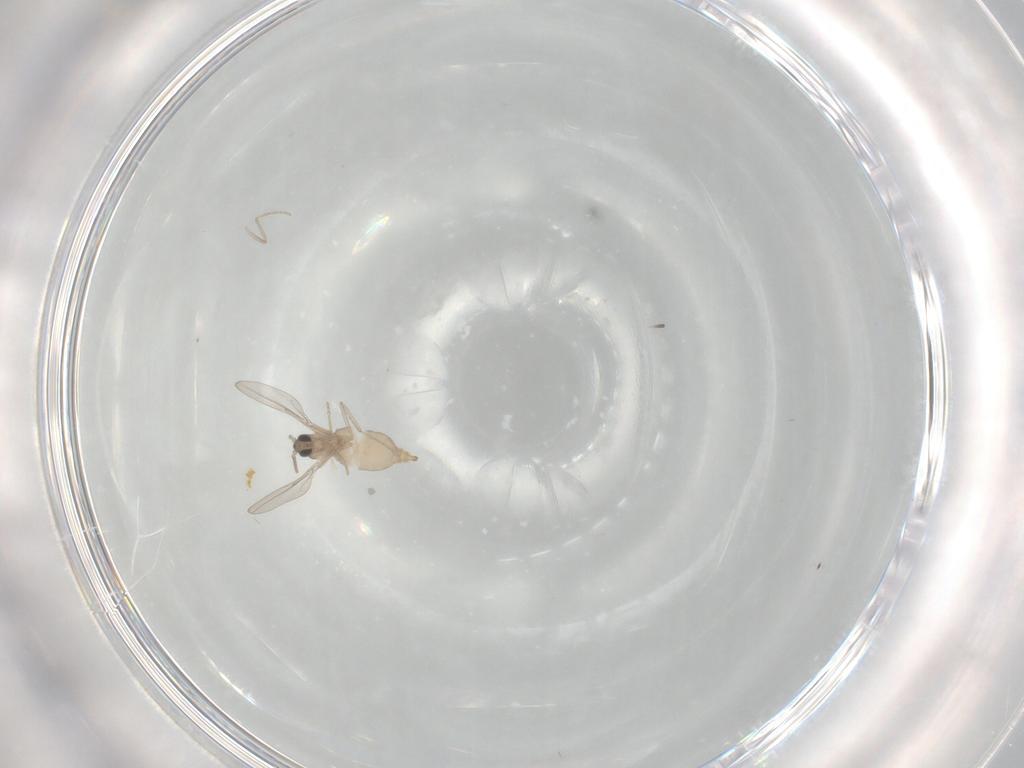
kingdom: Animalia
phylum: Arthropoda
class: Insecta
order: Diptera
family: Cecidomyiidae
